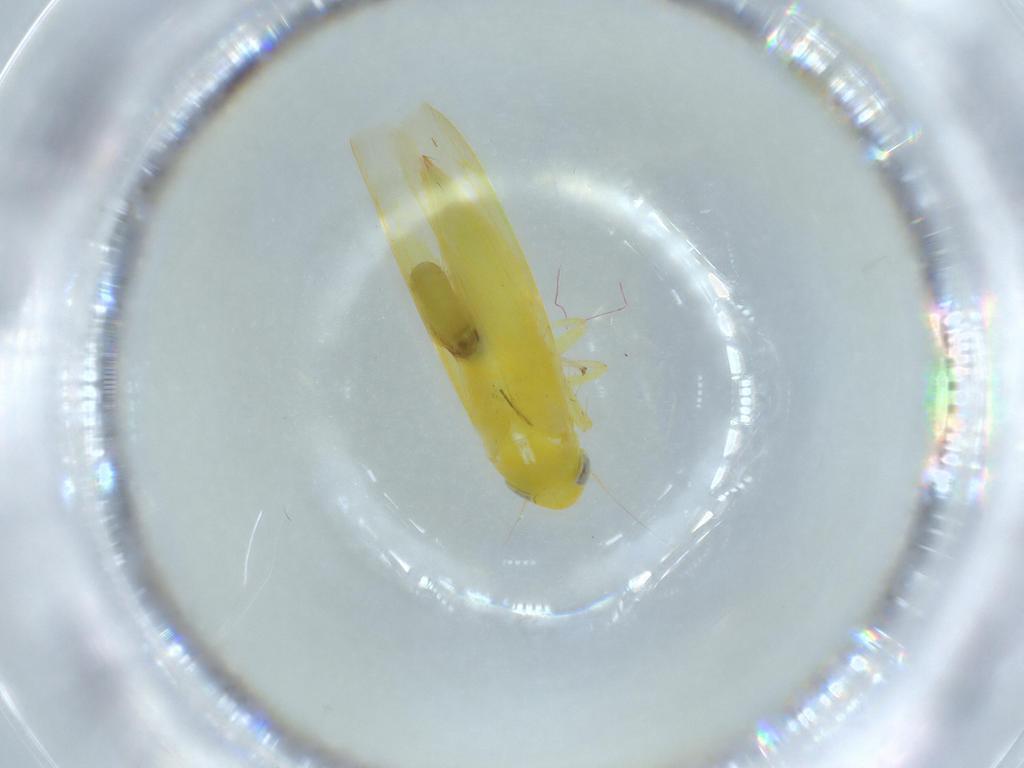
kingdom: Animalia
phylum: Arthropoda
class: Insecta
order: Hemiptera
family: Cicadellidae
